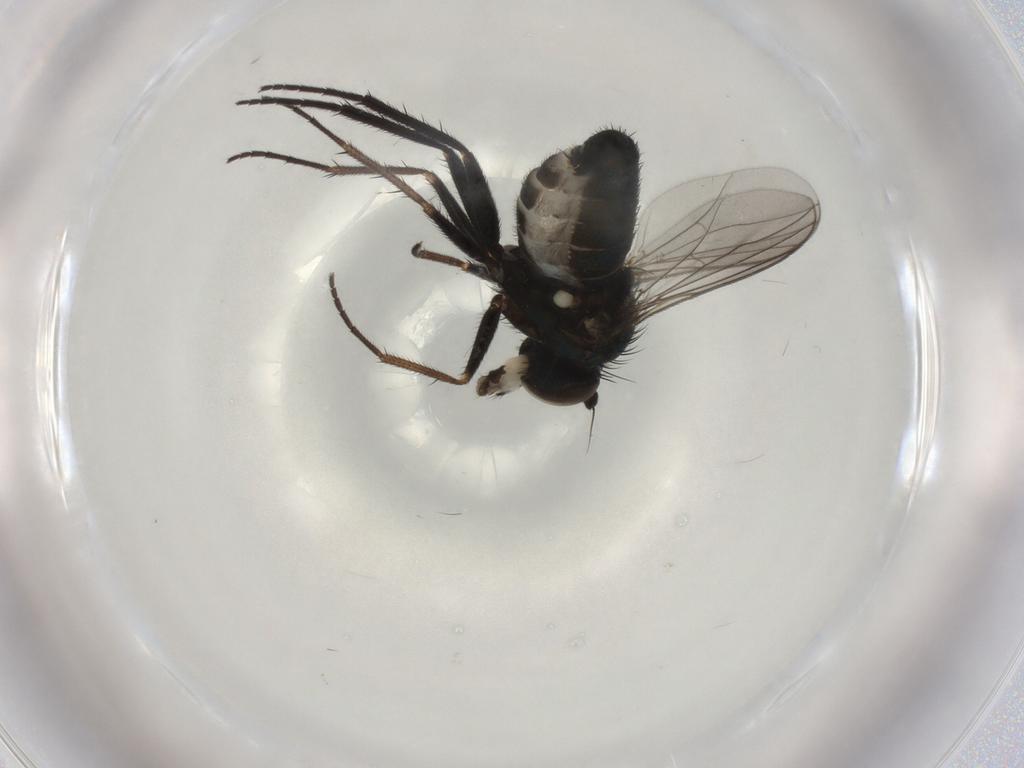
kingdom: Animalia
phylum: Arthropoda
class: Insecta
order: Diptera
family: Dolichopodidae
